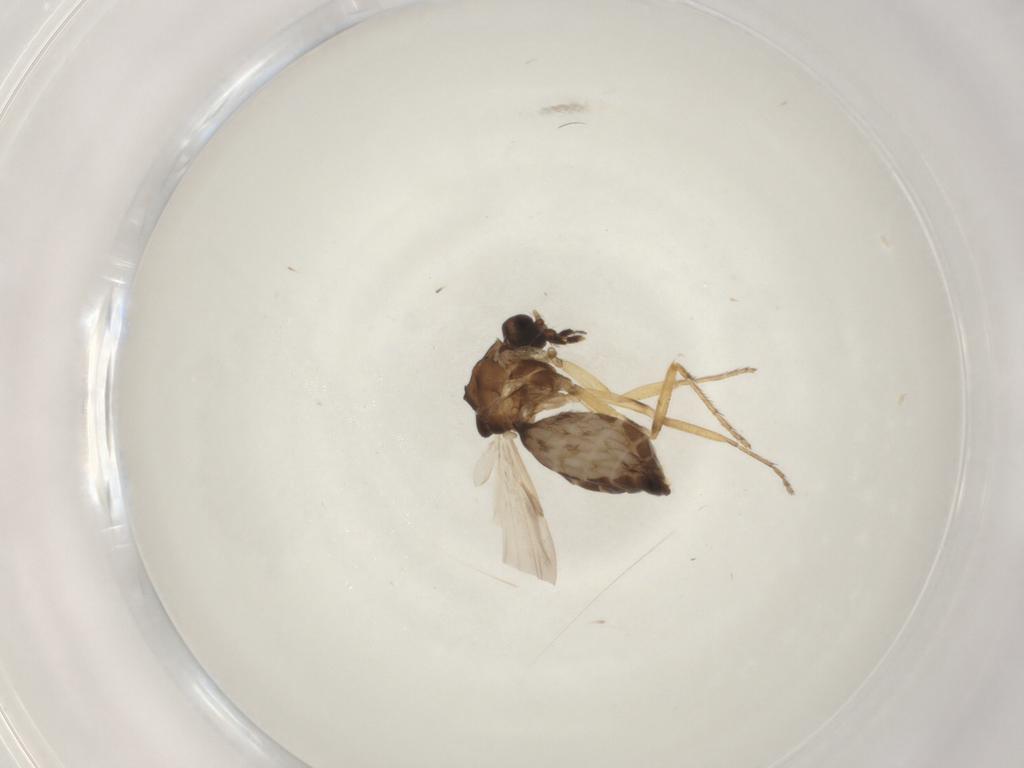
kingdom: Animalia
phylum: Arthropoda
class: Insecta
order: Diptera
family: Ceratopogonidae
